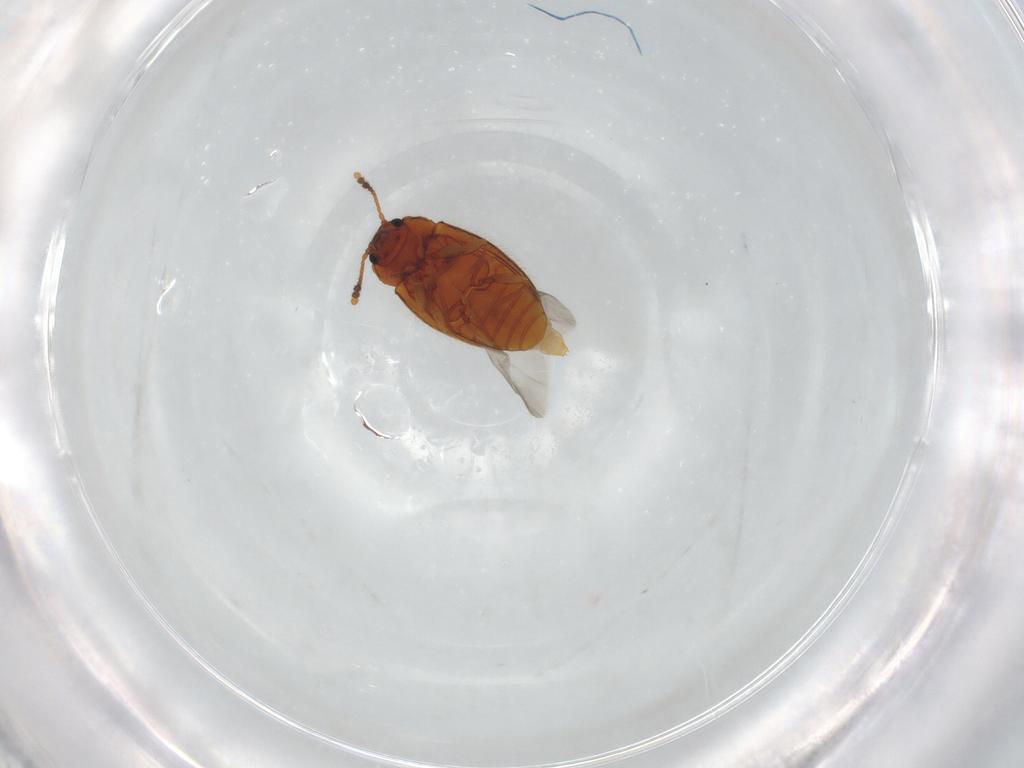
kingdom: Animalia
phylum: Arthropoda
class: Insecta
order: Coleoptera
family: Erotylidae
